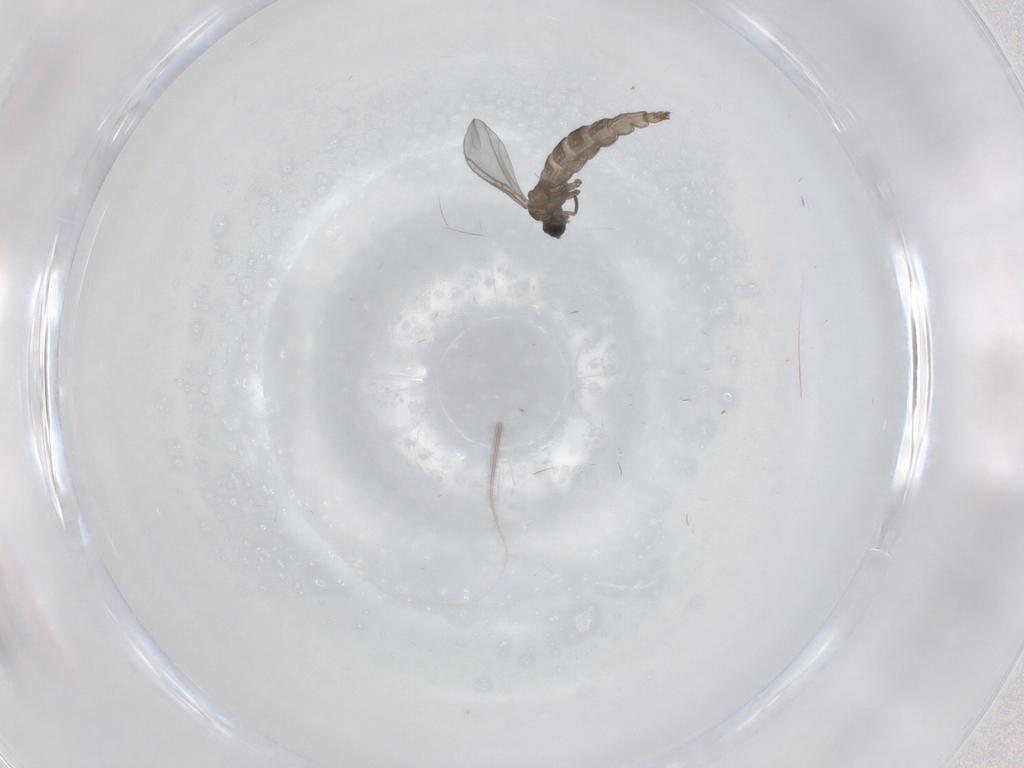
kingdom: Animalia
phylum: Arthropoda
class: Insecta
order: Diptera
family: Sciaridae
